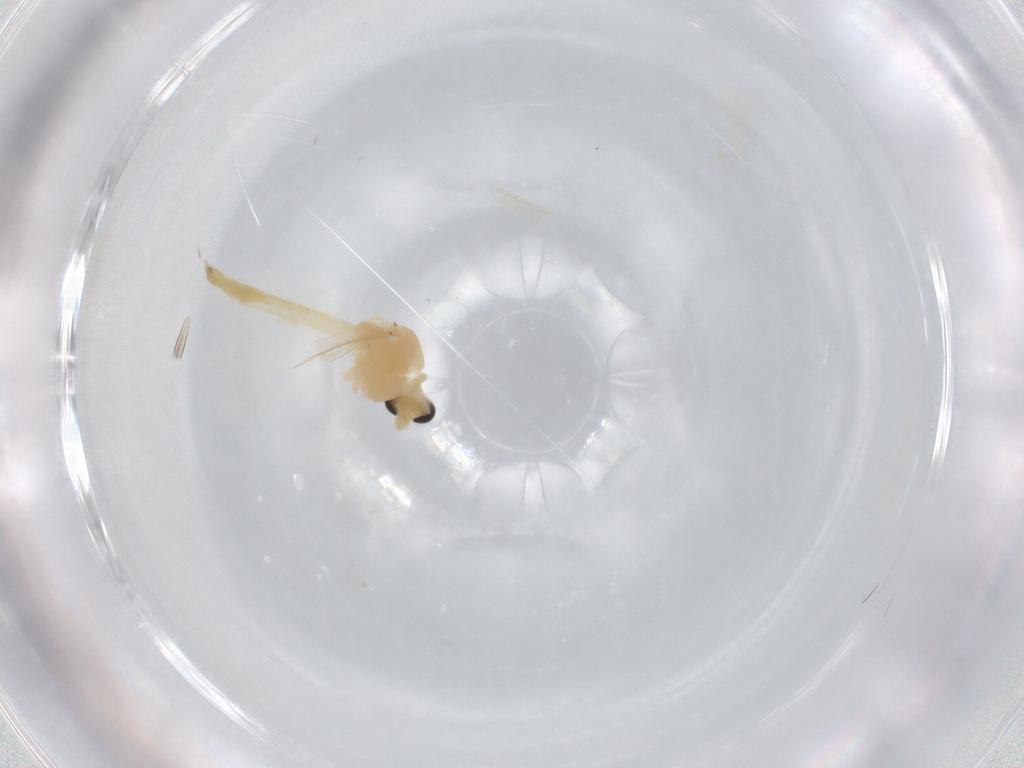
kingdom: Animalia
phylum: Arthropoda
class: Insecta
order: Diptera
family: Chironomidae
